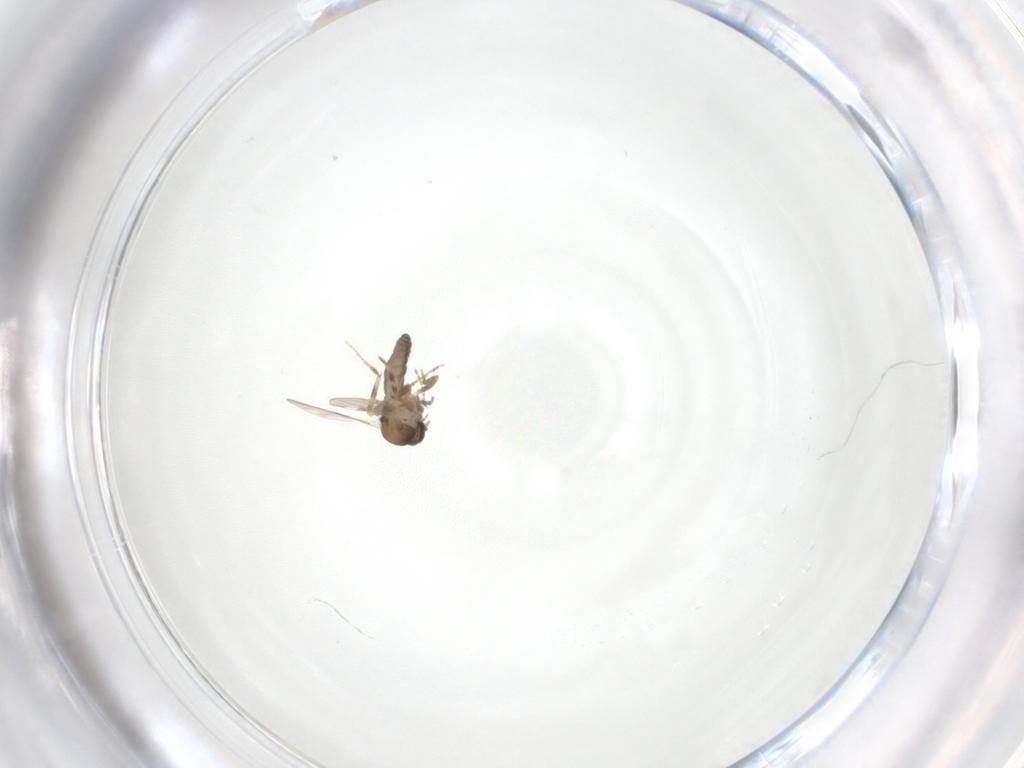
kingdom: Animalia
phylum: Arthropoda
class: Insecta
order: Diptera
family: Ceratopogonidae
